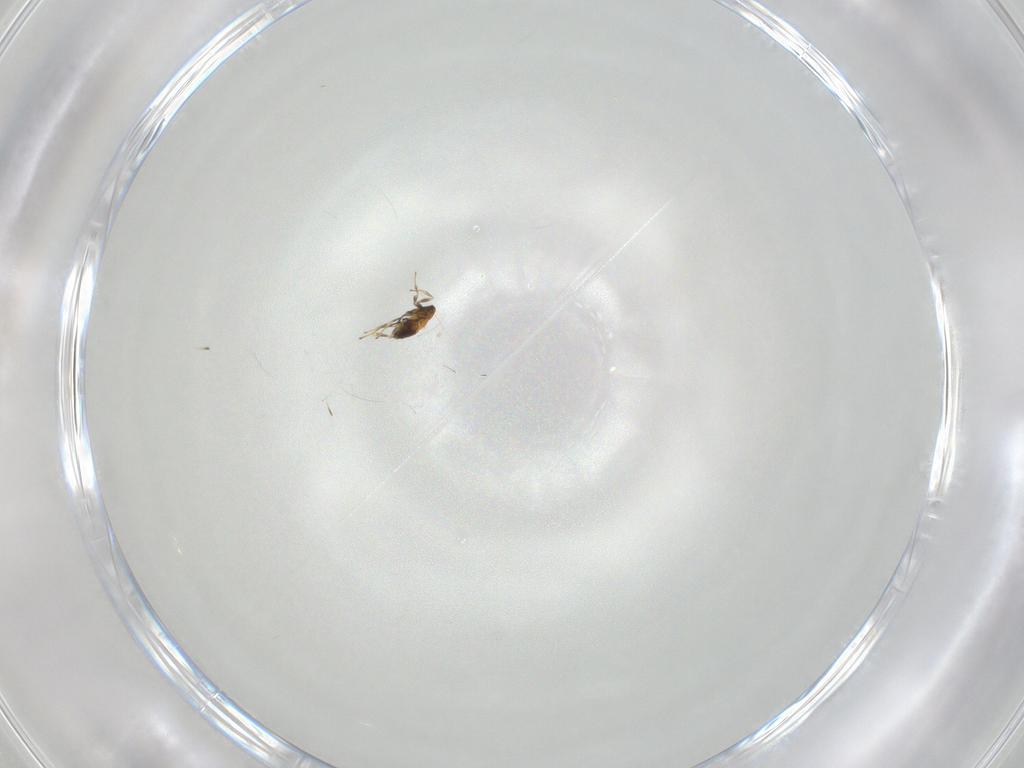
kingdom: Animalia
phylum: Arthropoda
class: Insecta
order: Hymenoptera
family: Trichogrammatidae
